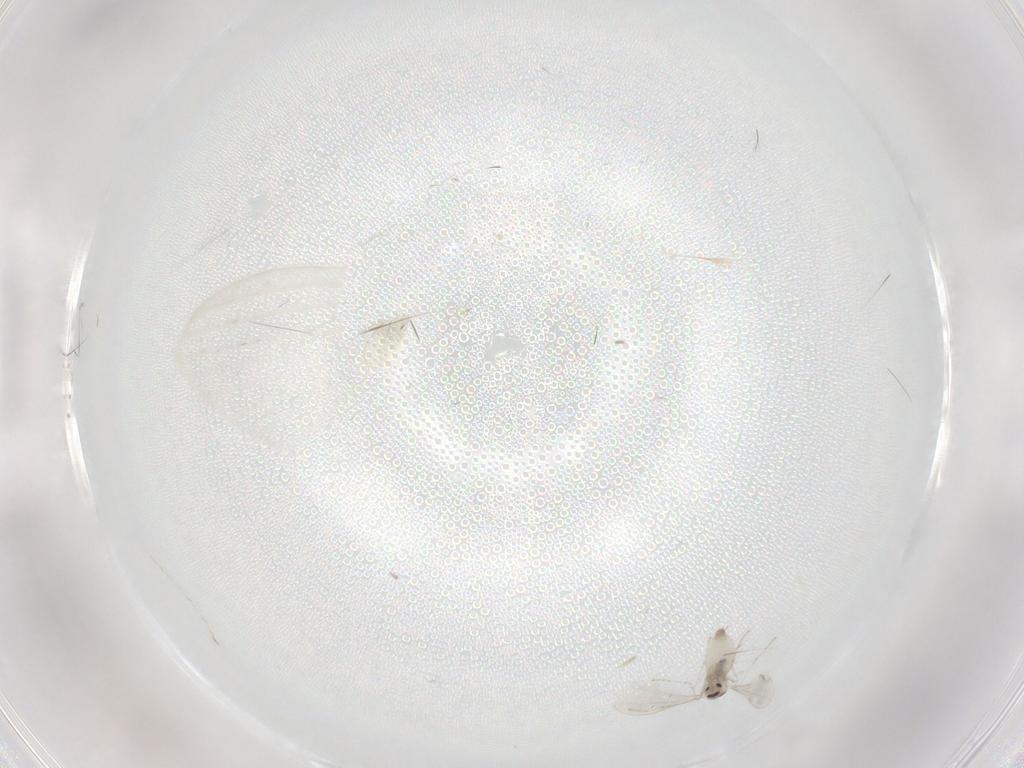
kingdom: Animalia
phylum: Arthropoda
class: Insecta
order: Diptera
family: Cecidomyiidae
